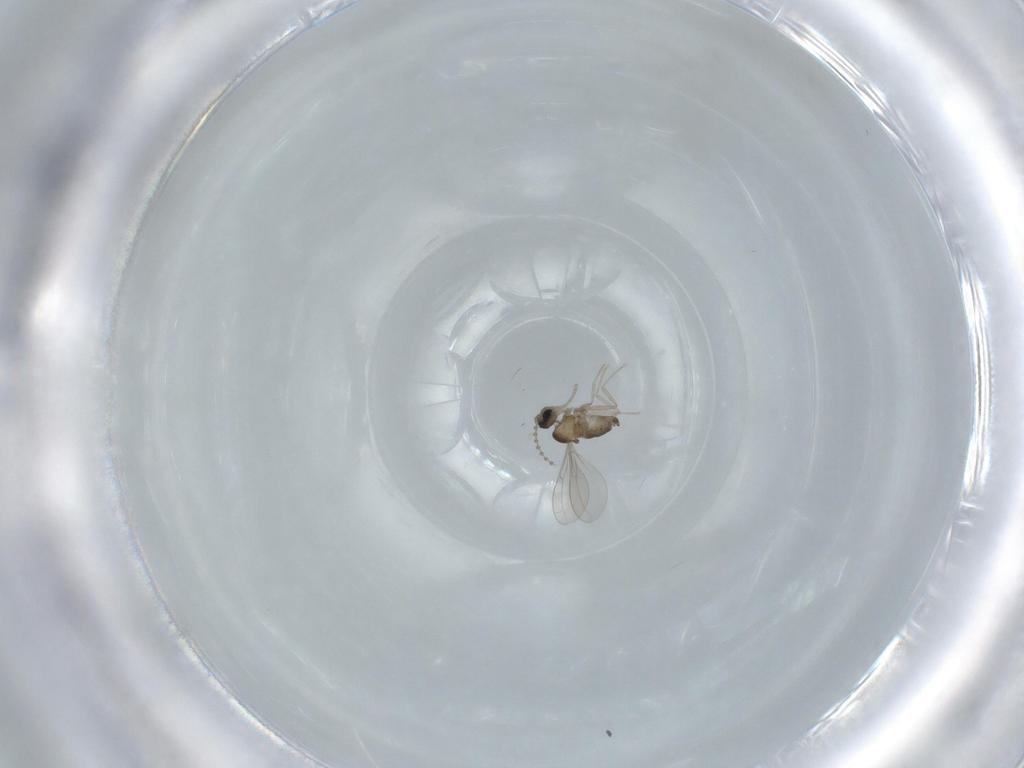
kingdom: Animalia
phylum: Arthropoda
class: Insecta
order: Diptera
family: Cecidomyiidae
